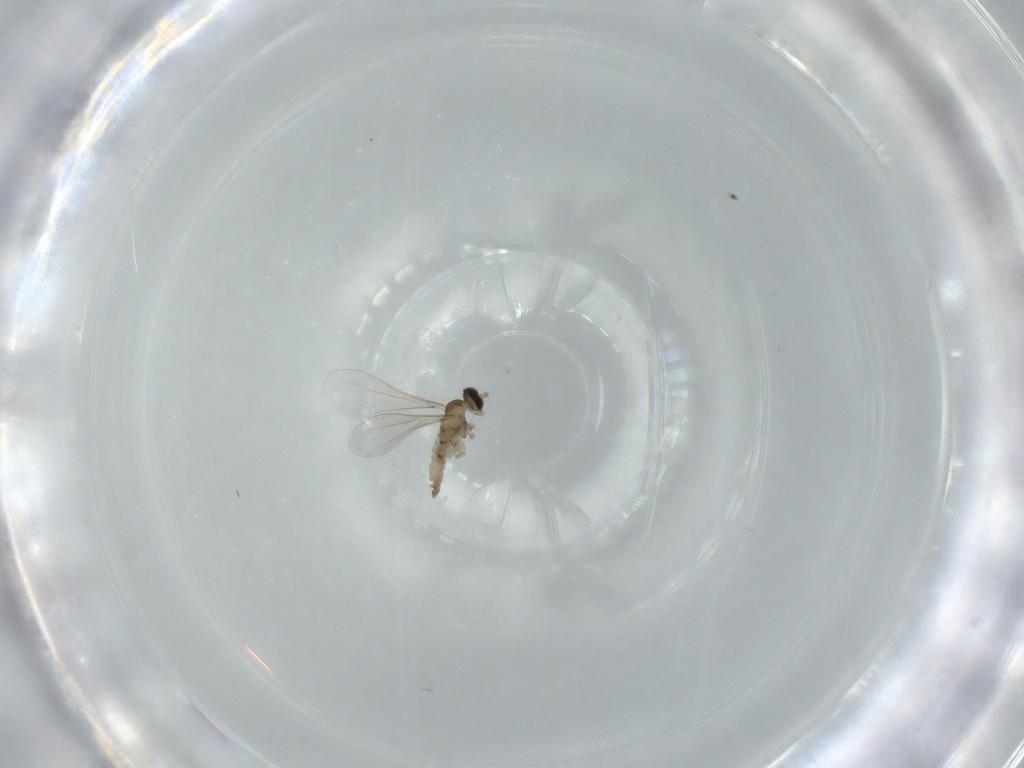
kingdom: Animalia
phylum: Arthropoda
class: Insecta
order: Diptera
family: Cecidomyiidae
